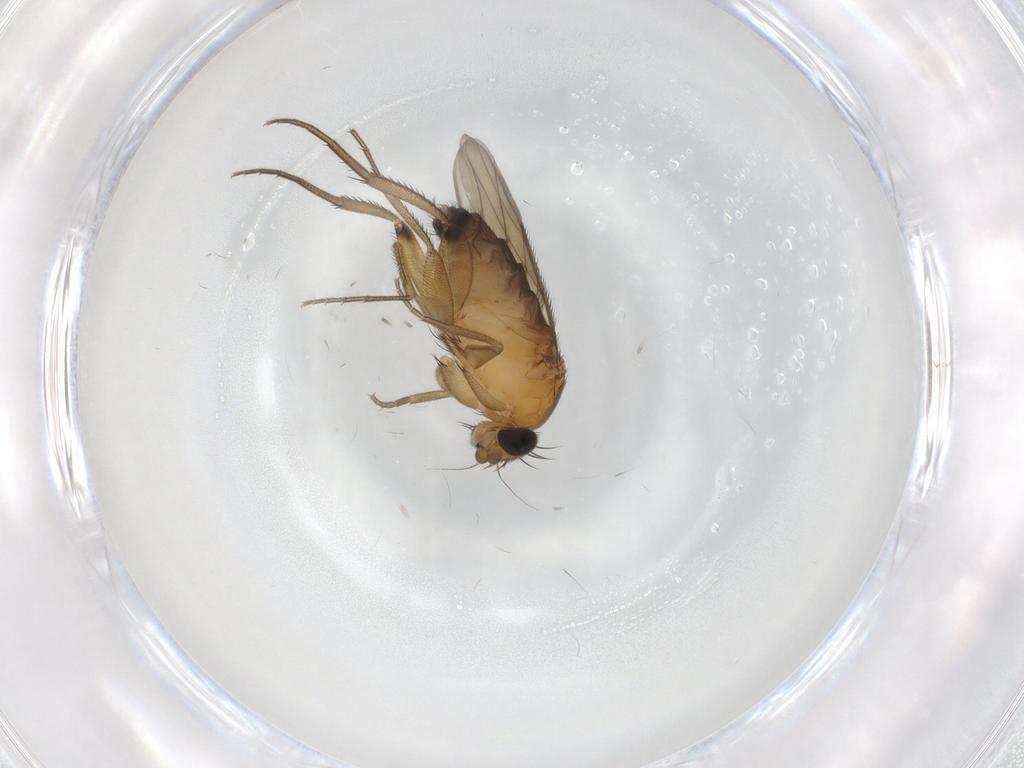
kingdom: Animalia
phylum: Arthropoda
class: Insecta
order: Diptera
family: Phoridae
